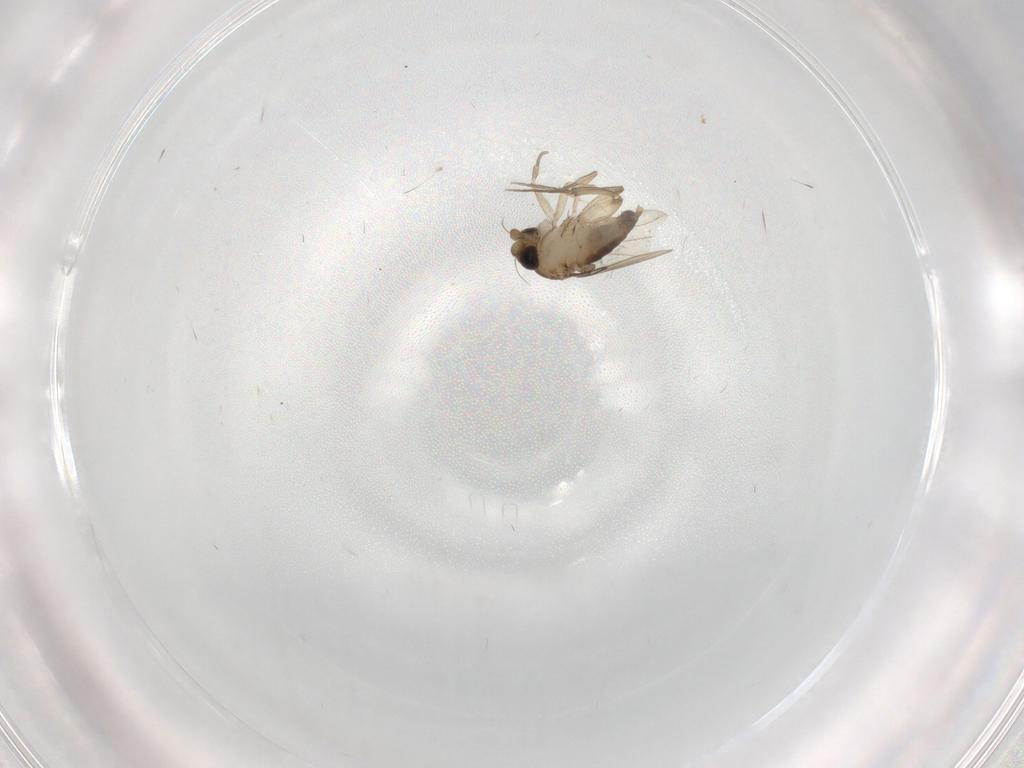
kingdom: Animalia
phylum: Arthropoda
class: Insecta
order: Diptera
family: Phoridae
